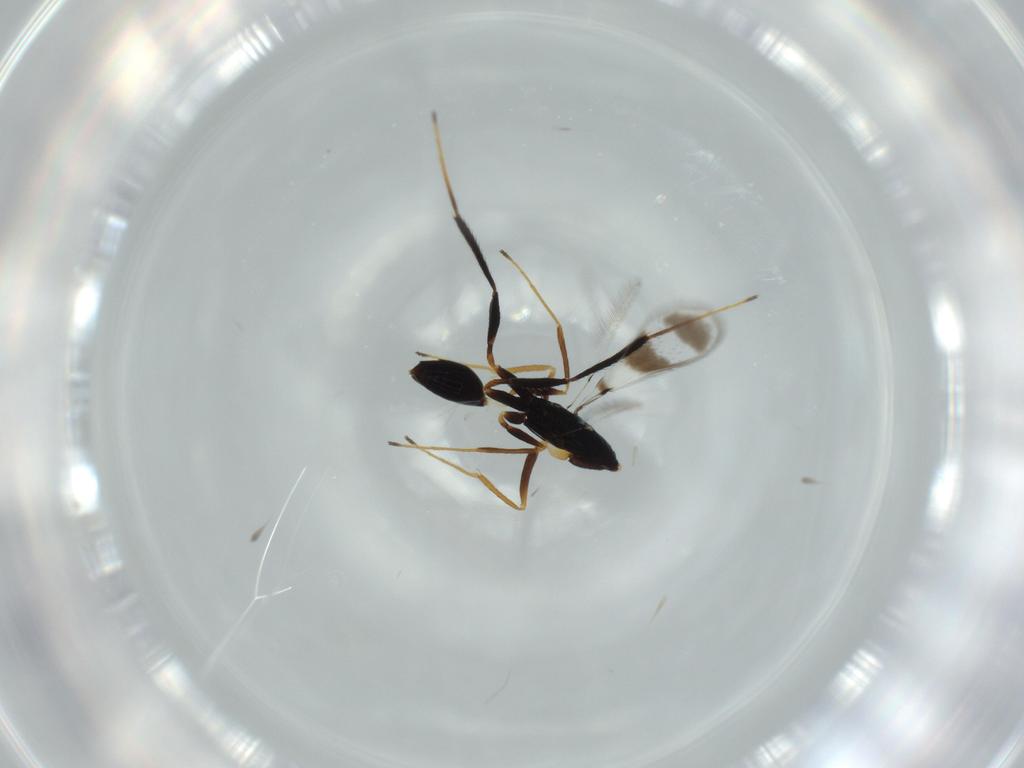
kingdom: Animalia
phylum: Arthropoda
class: Insecta
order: Hymenoptera
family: Mymaridae
